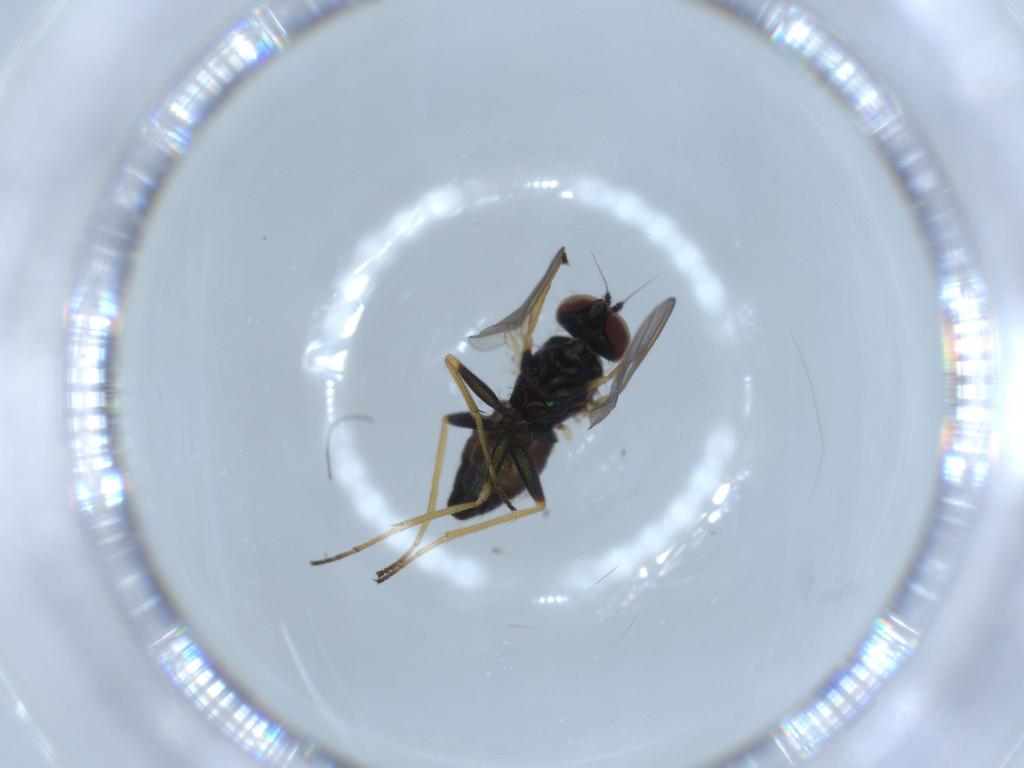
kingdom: Animalia
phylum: Arthropoda
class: Insecta
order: Diptera
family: Dolichopodidae
